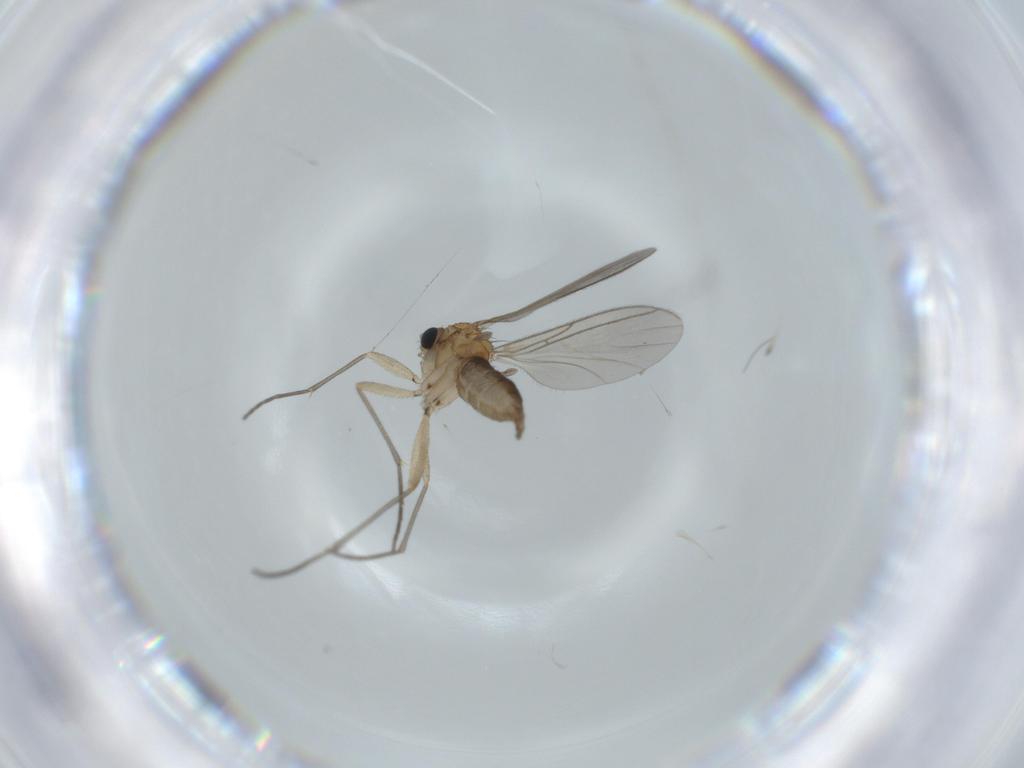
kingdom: Animalia
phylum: Arthropoda
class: Insecta
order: Diptera
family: Sciaridae
